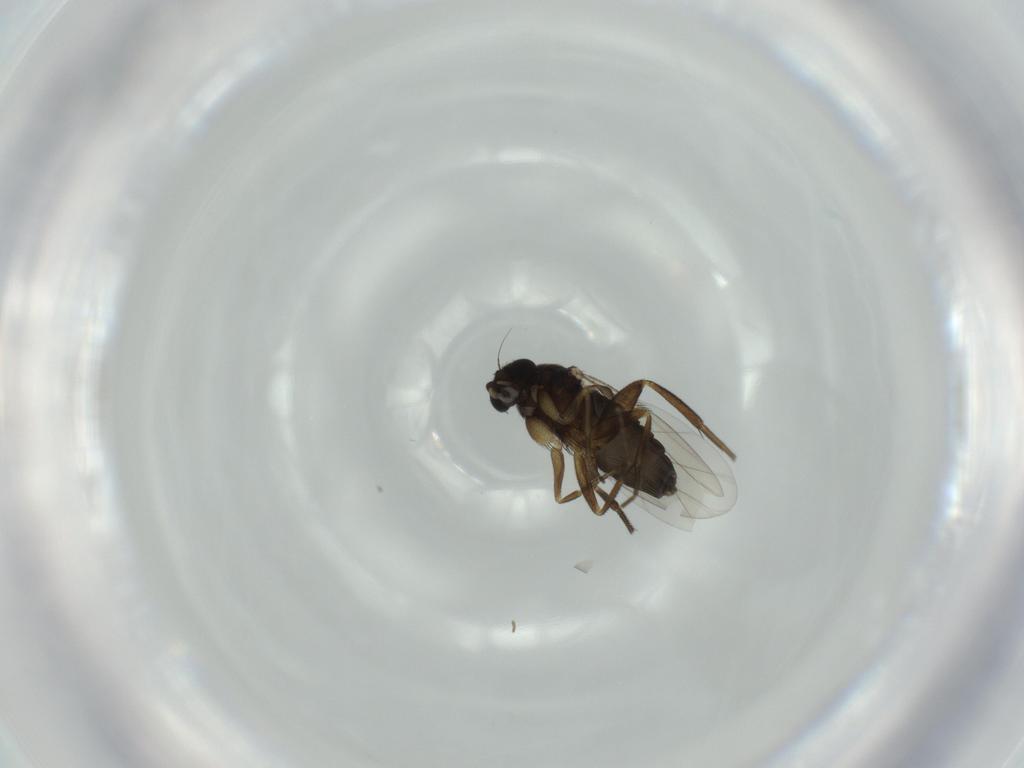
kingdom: Animalia
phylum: Arthropoda
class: Insecta
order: Diptera
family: Phoridae
